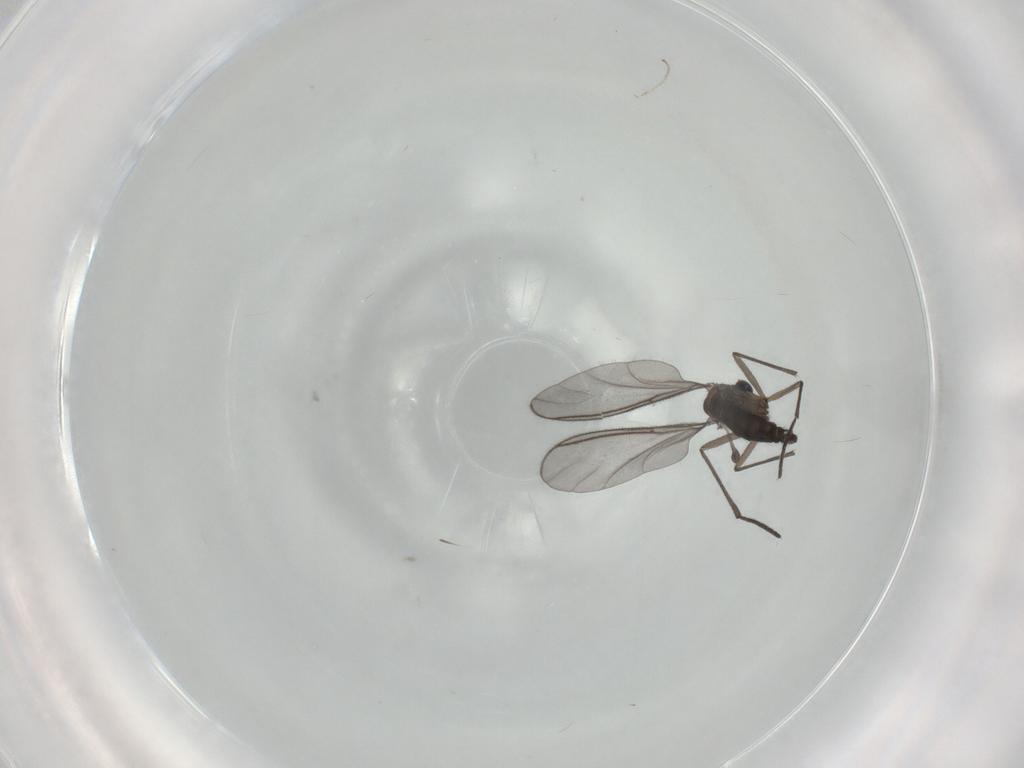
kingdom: Animalia
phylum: Arthropoda
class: Insecta
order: Diptera
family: Sciaridae
